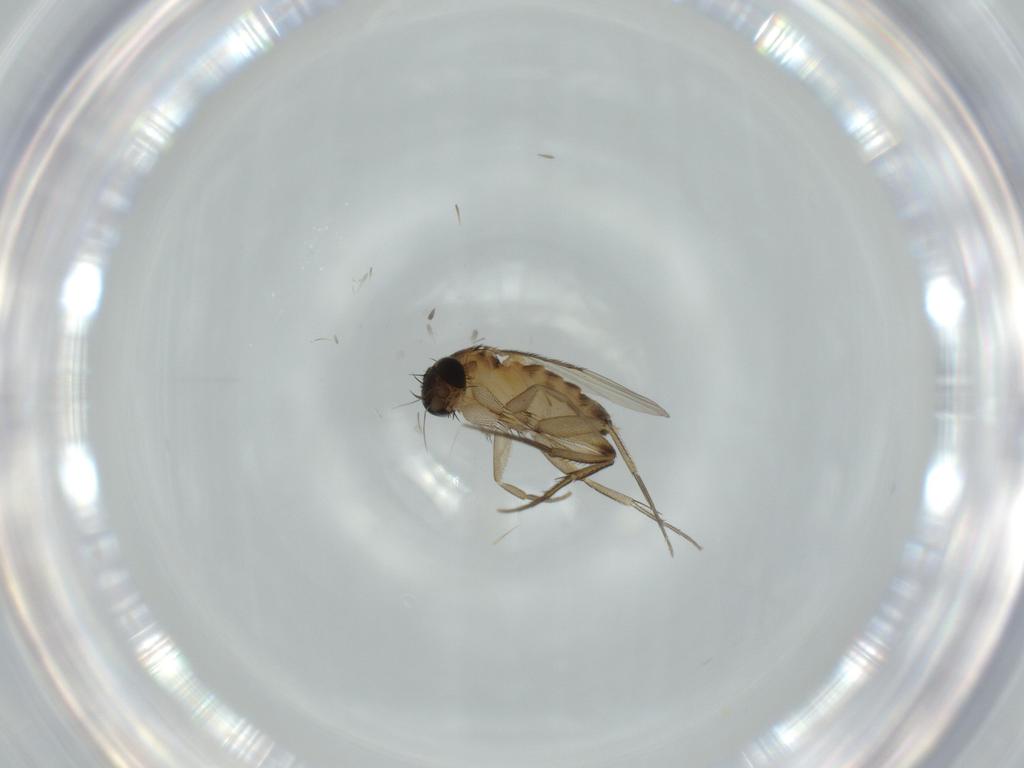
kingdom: Animalia
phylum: Arthropoda
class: Insecta
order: Diptera
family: Phoridae
